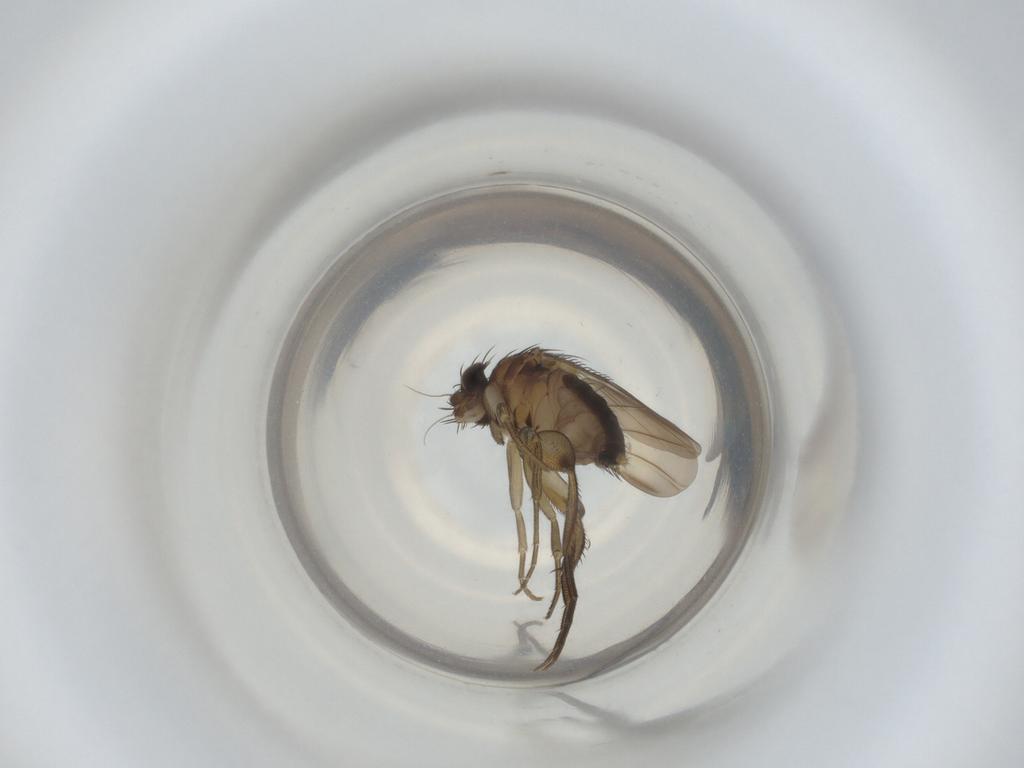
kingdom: Animalia
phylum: Arthropoda
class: Insecta
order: Diptera
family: Phoridae
